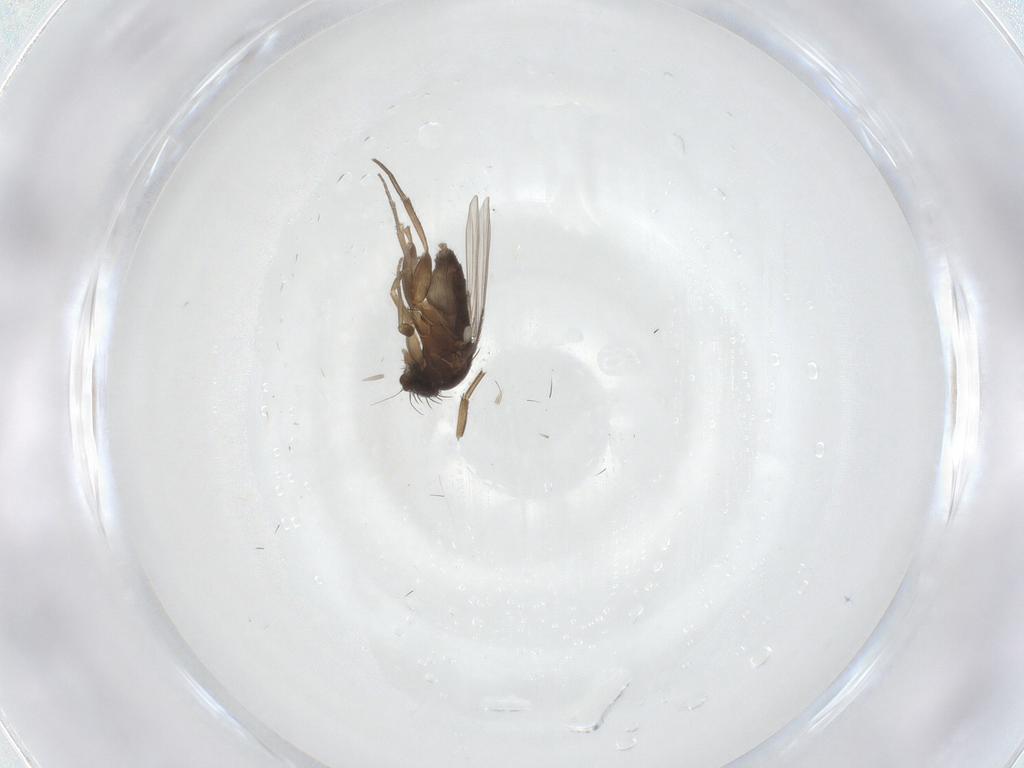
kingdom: Animalia
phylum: Arthropoda
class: Insecta
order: Diptera
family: Phoridae
